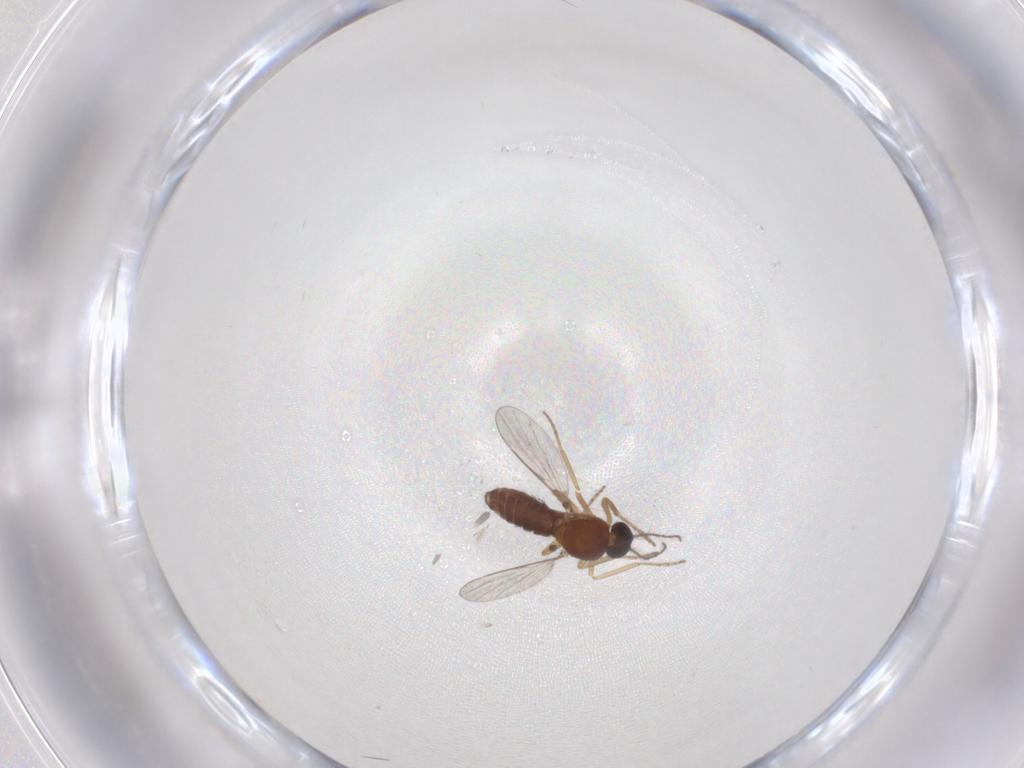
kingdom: Animalia
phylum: Arthropoda
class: Insecta
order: Diptera
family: Ceratopogonidae
